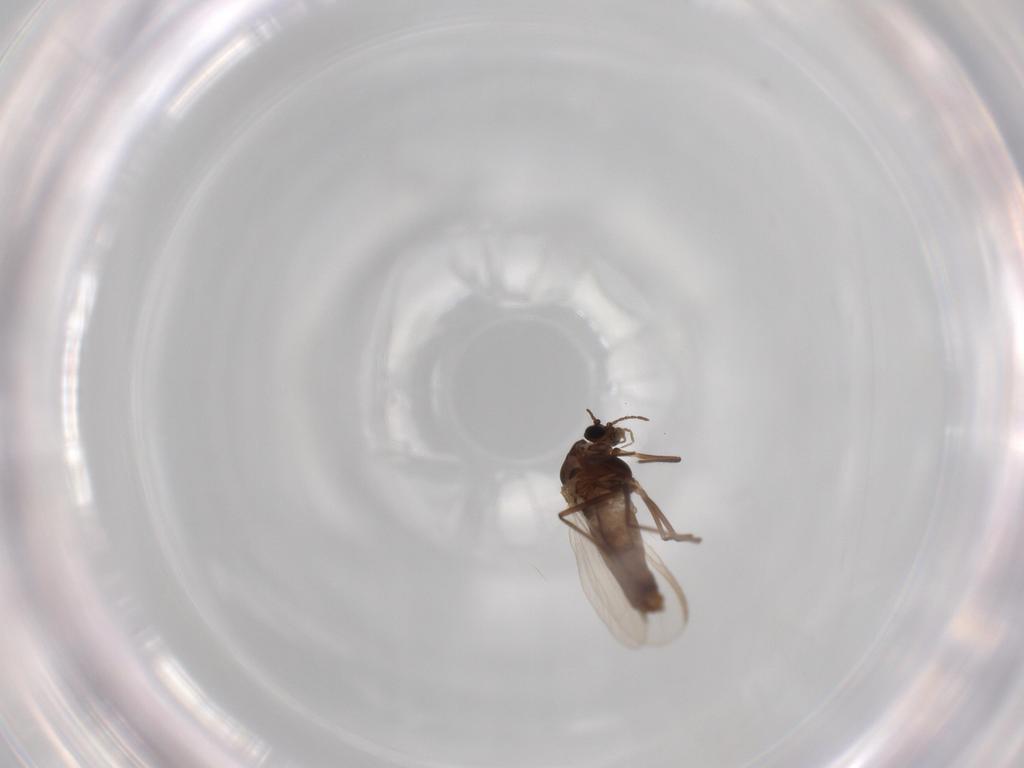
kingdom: Animalia
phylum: Arthropoda
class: Insecta
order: Diptera
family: Chironomidae
